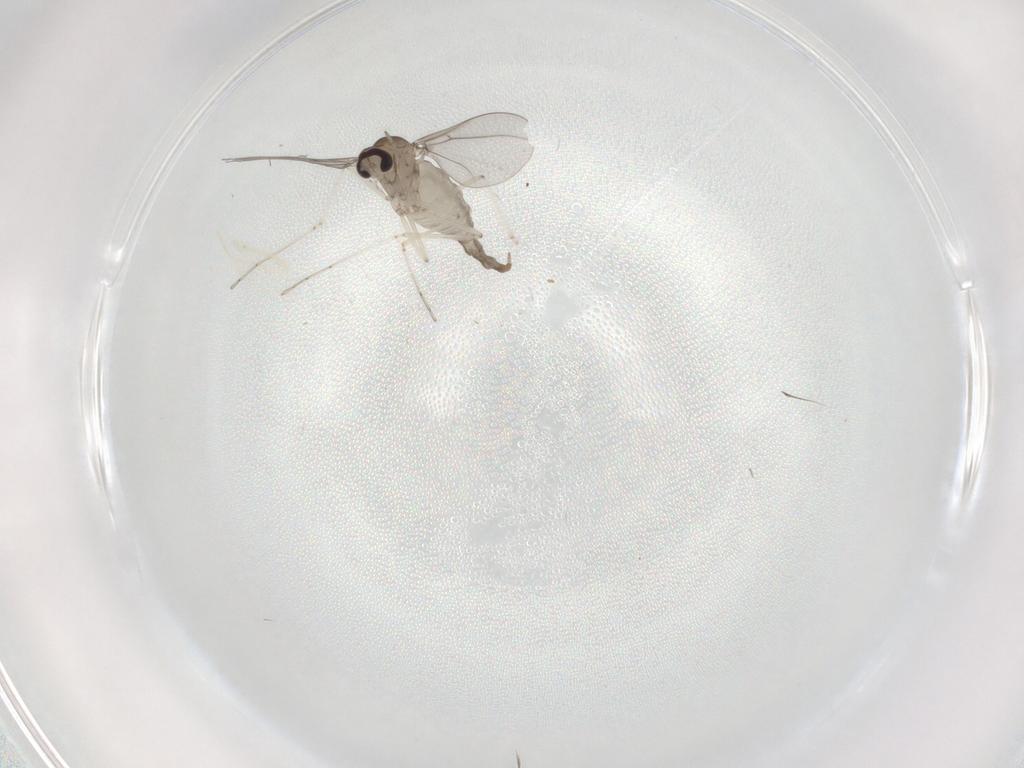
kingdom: Animalia
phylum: Arthropoda
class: Insecta
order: Diptera
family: Cecidomyiidae
